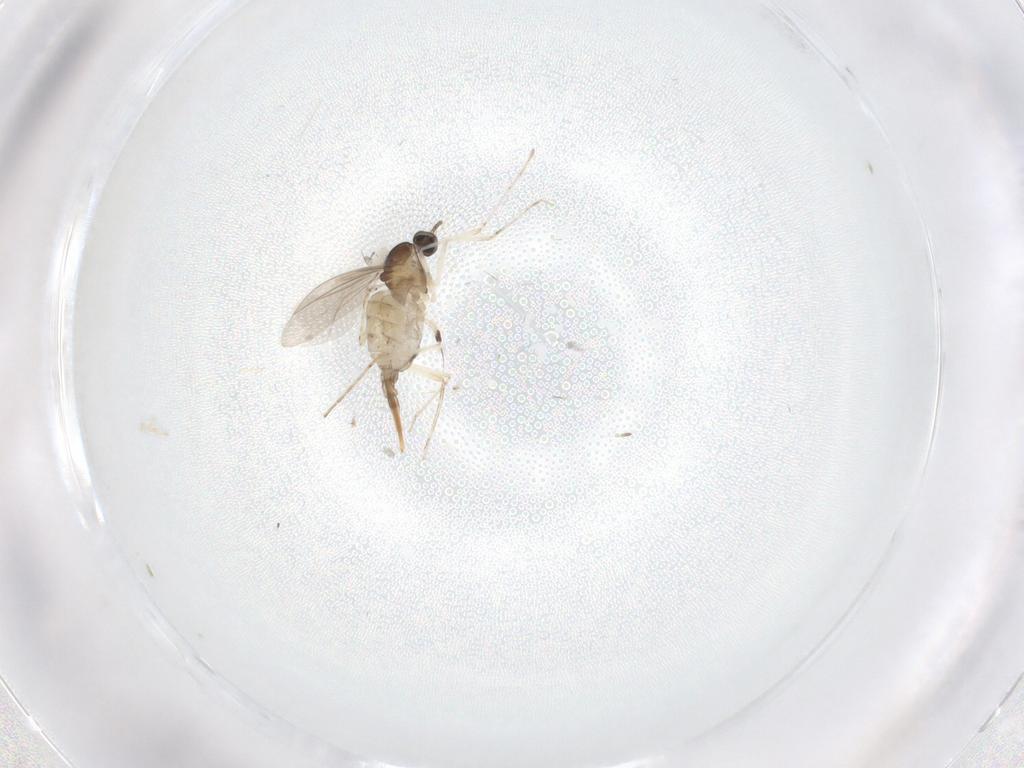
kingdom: Animalia
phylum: Arthropoda
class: Insecta
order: Diptera
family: Cecidomyiidae
